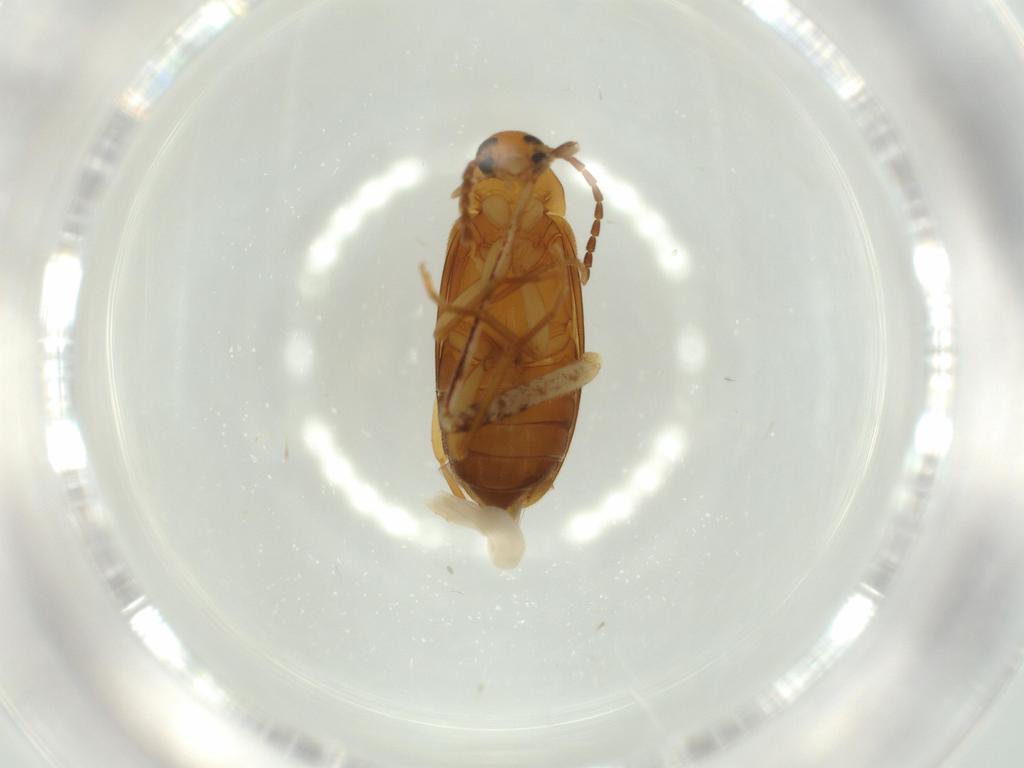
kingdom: Animalia
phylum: Arthropoda
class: Insecta
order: Coleoptera
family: Scraptiidae
